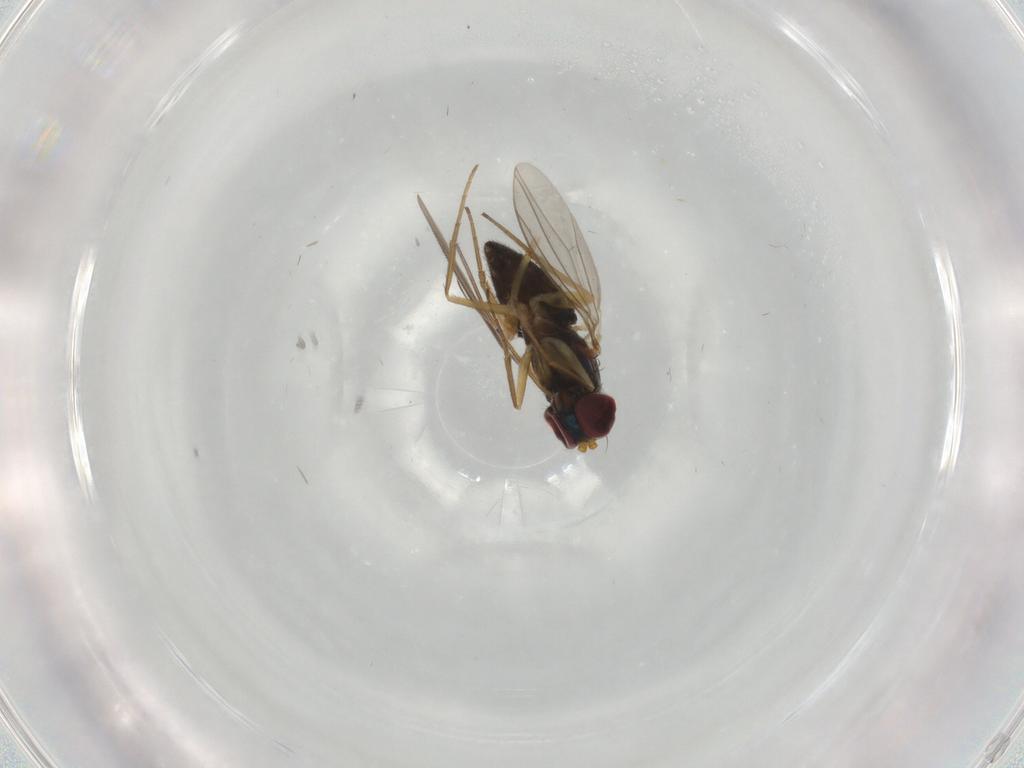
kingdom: Animalia
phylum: Arthropoda
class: Insecta
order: Diptera
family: Dolichopodidae
